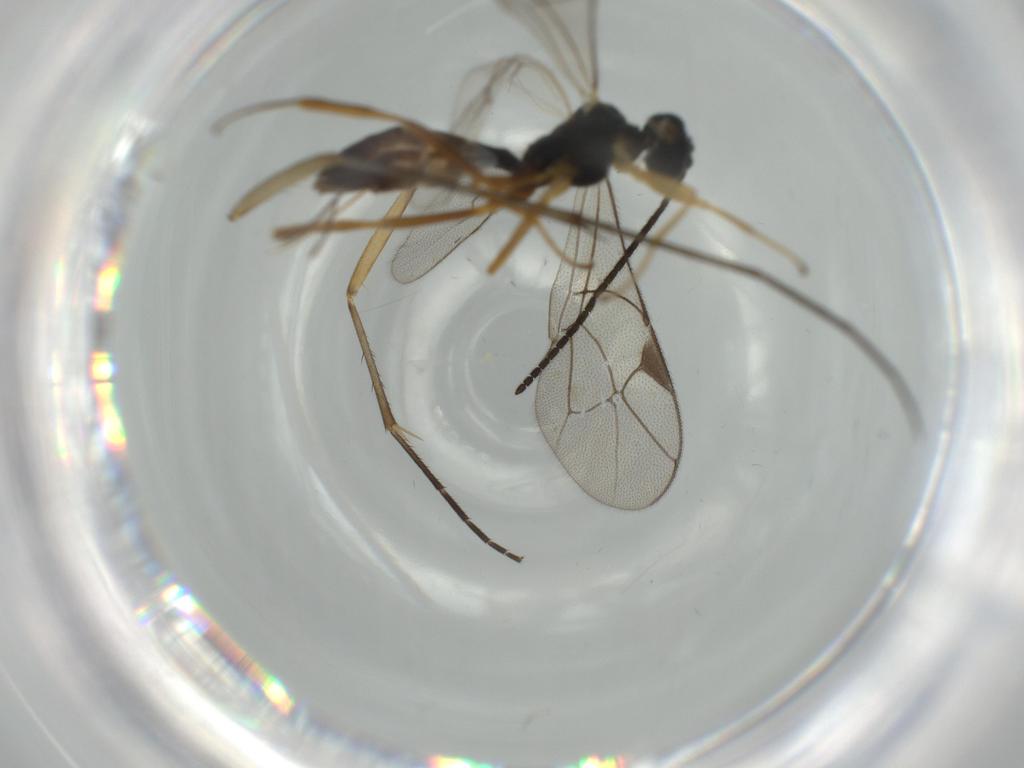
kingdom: Animalia
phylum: Arthropoda
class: Insecta
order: Hymenoptera
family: Ichneumonidae
